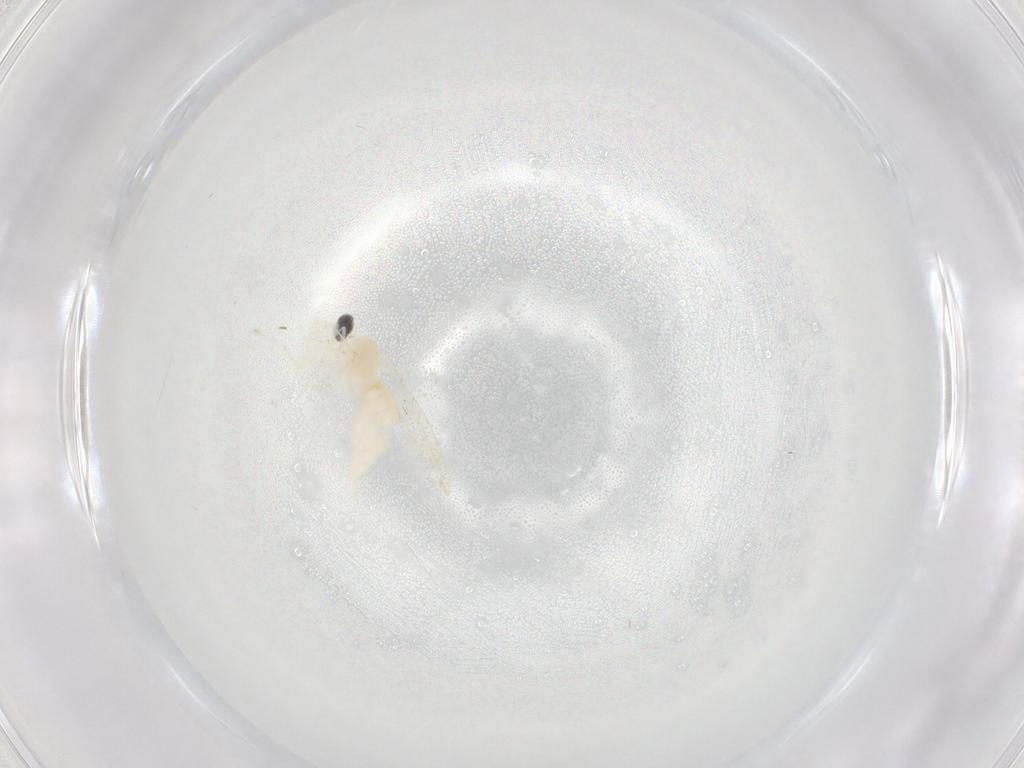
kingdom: Animalia
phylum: Arthropoda
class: Insecta
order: Diptera
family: Cecidomyiidae
